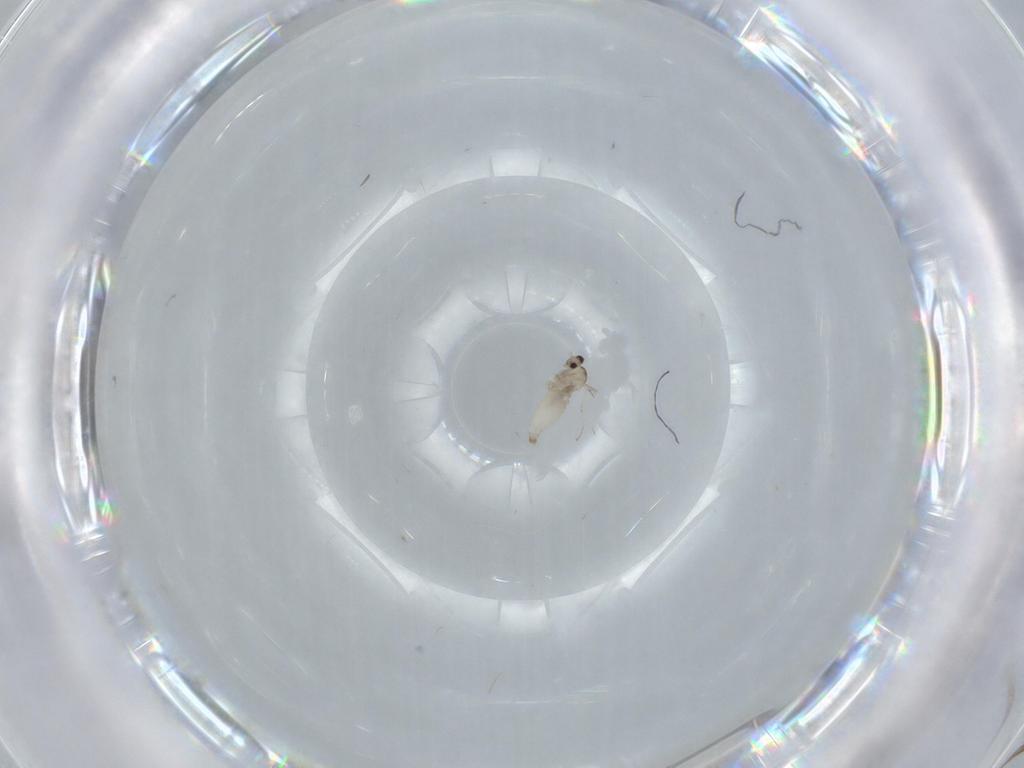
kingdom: Animalia
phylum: Arthropoda
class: Insecta
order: Diptera
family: Cecidomyiidae
